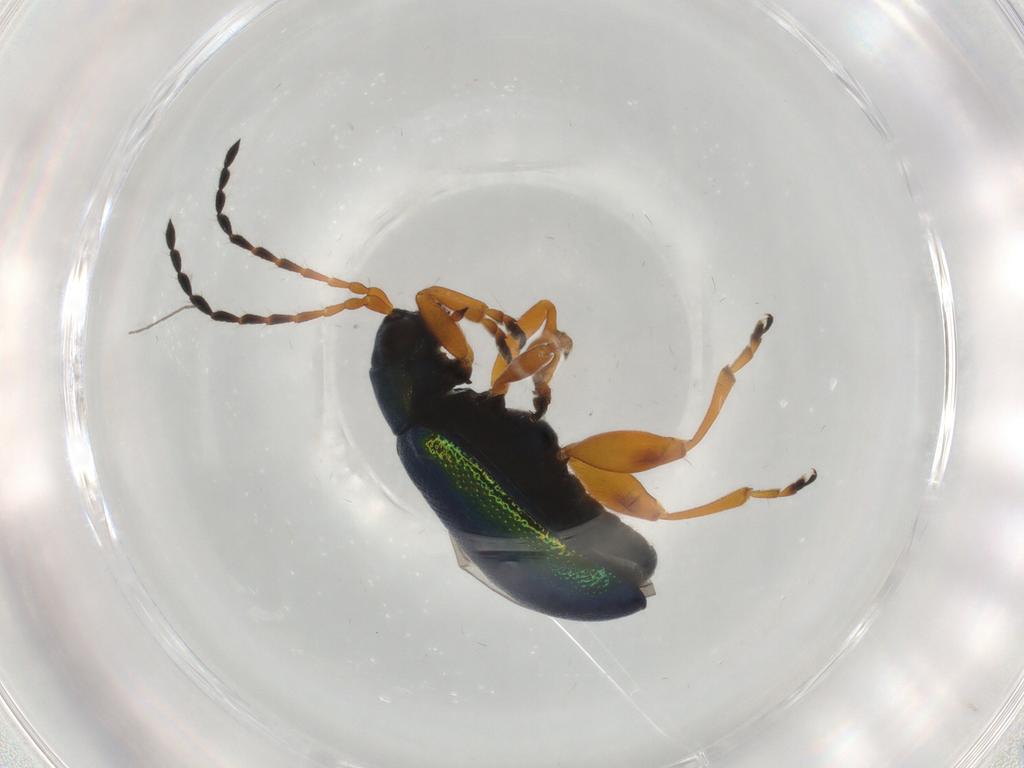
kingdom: Animalia
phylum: Arthropoda
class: Insecta
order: Coleoptera
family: Chrysomelidae
